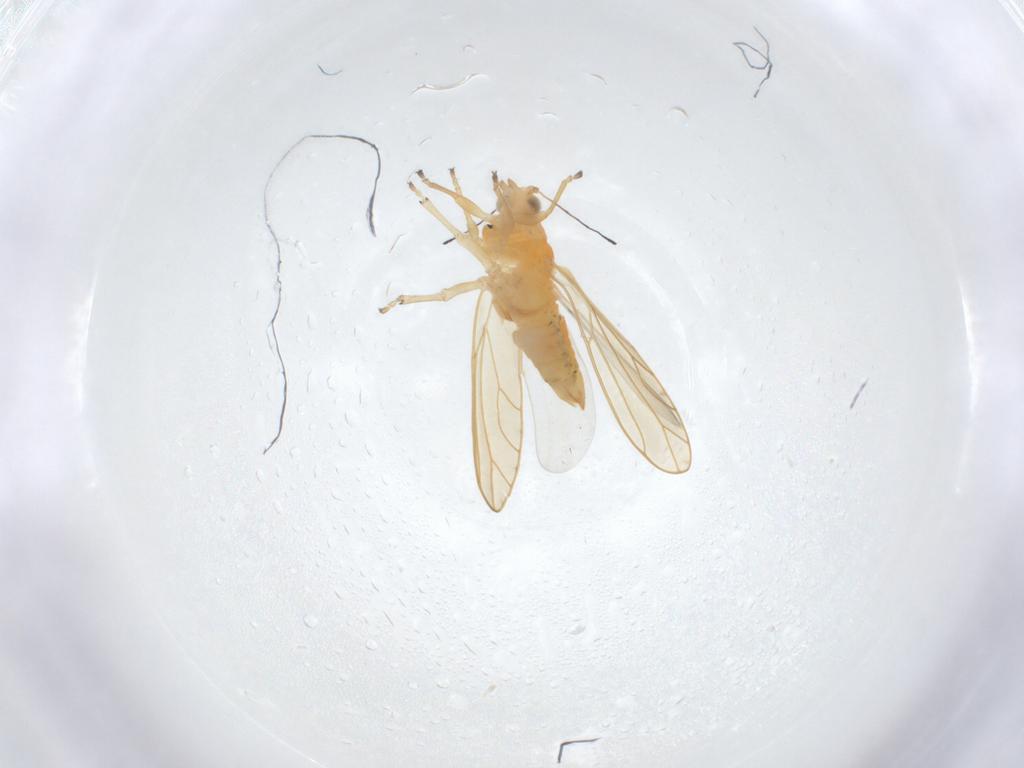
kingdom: Animalia
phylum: Arthropoda
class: Insecta
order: Hemiptera
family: Triozidae
